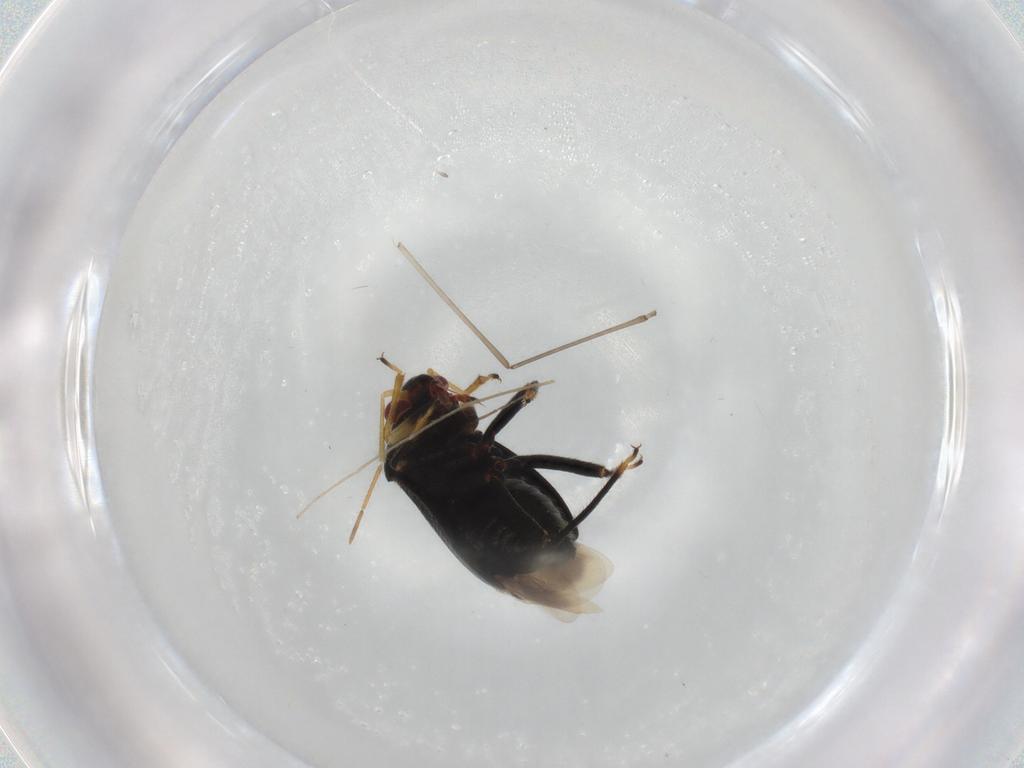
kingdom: Animalia
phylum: Arthropoda
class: Insecta
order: Hemiptera
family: Miridae
